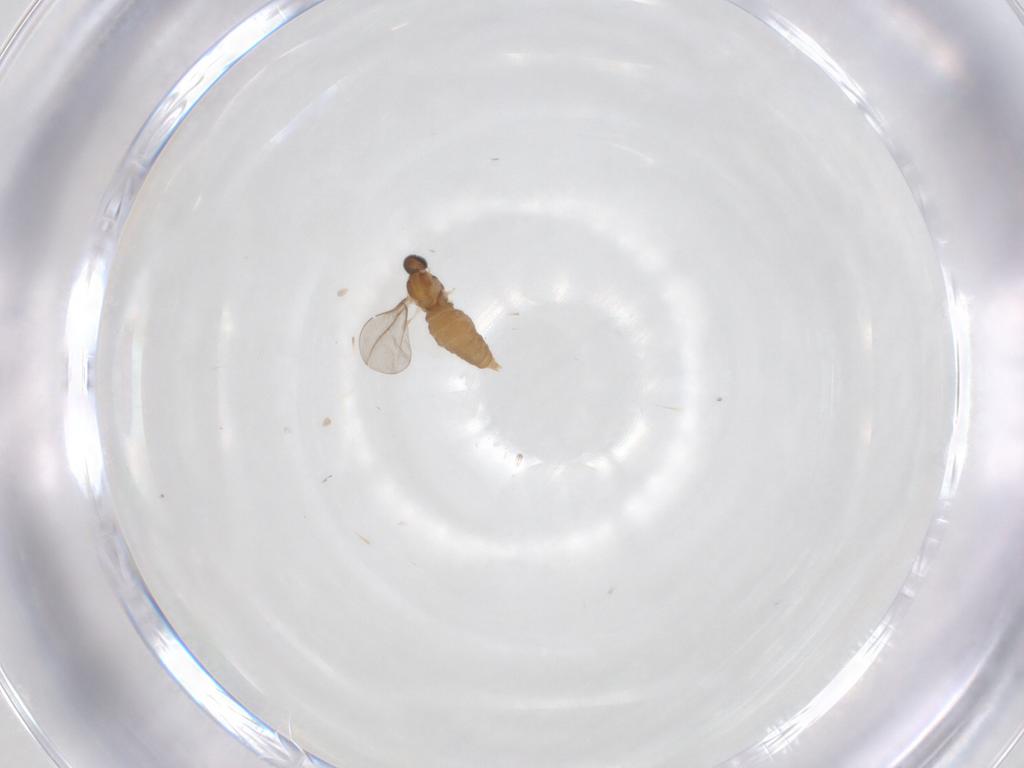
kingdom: Animalia
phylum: Arthropoda
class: Insecta
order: Diptera
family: Cecidomyiidae
